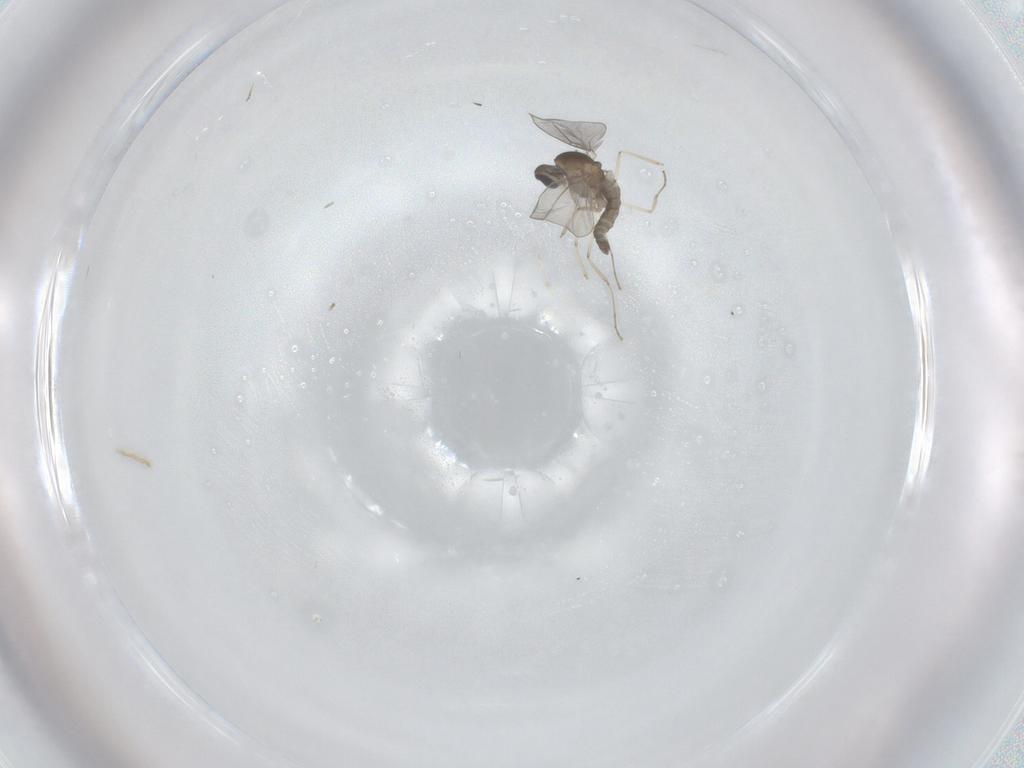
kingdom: Animalia
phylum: Arthropoda
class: Insecta
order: Diptera
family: Cecidomyiidae
